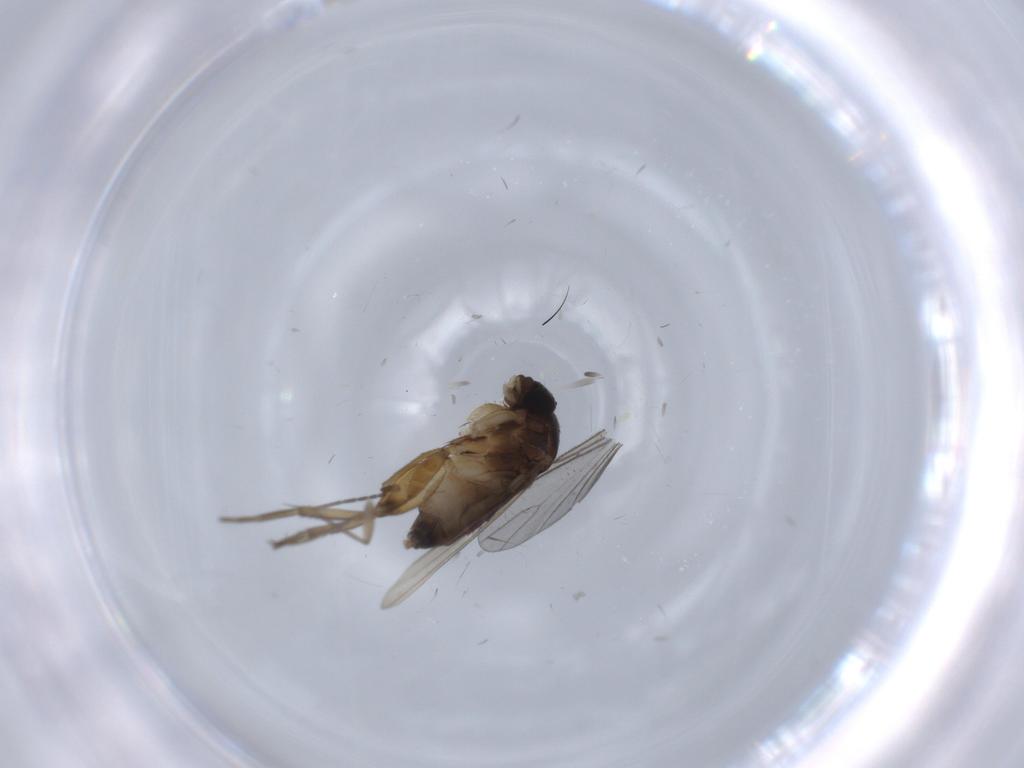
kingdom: Animalia
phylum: Arthropoda
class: Insecta
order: Diptera
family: Sciaridae
